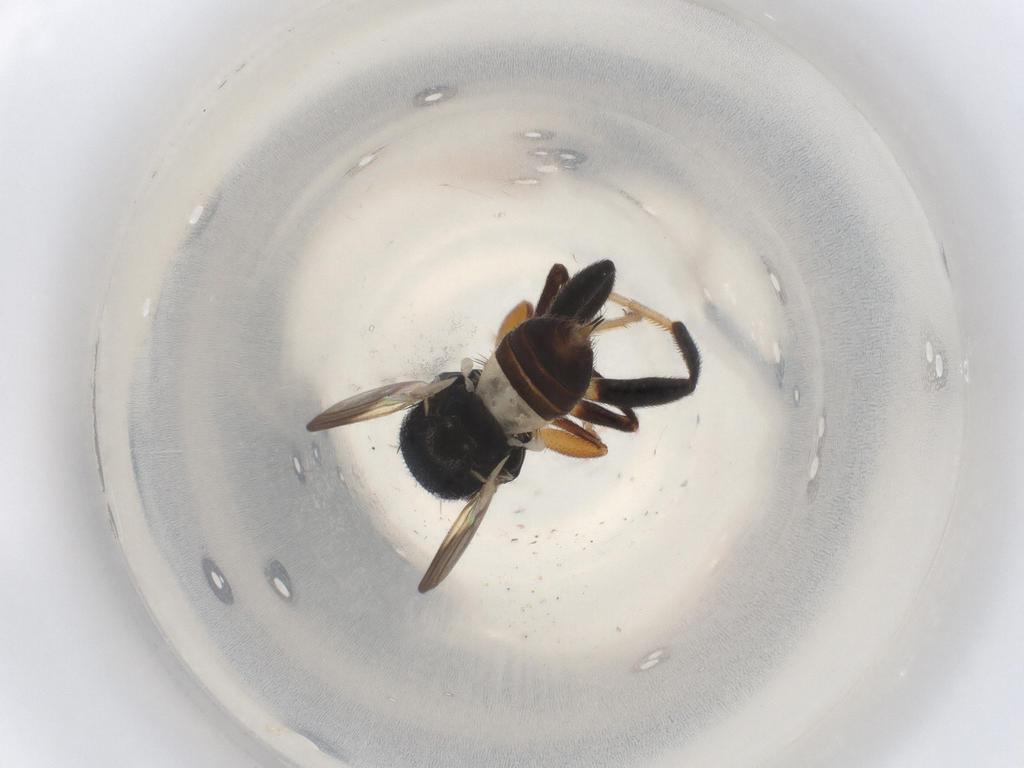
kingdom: Animalia
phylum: Arthropoda
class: Insecta
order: Diptera
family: Chloropidae
